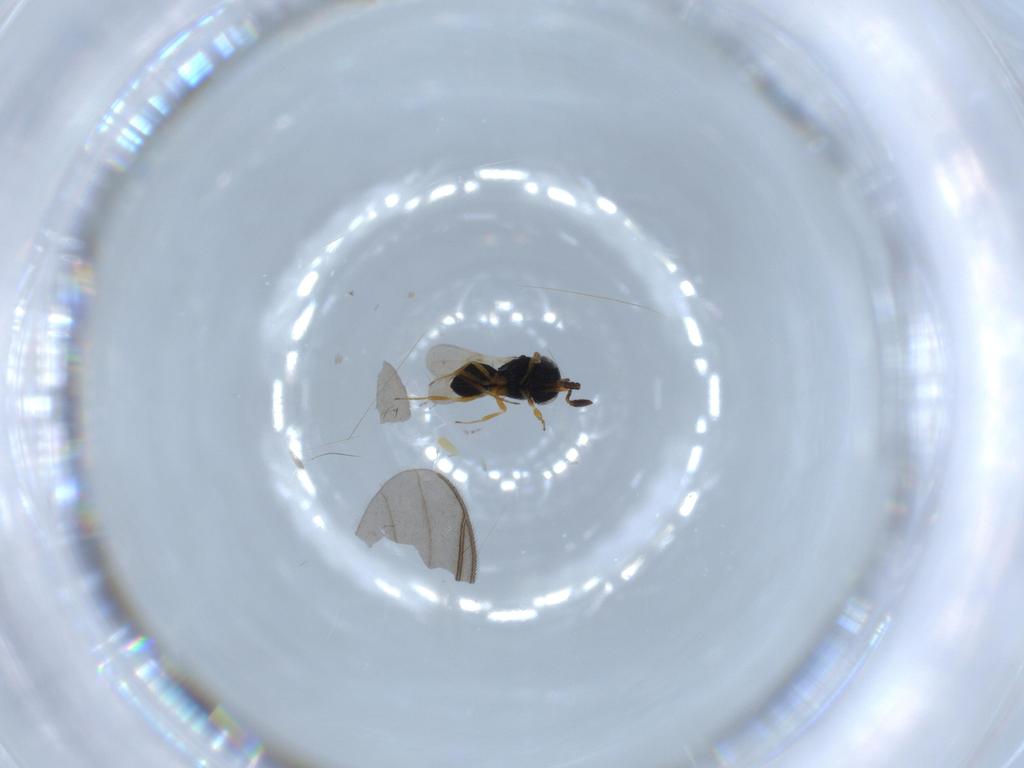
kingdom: Animalia
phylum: Arthropoda
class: Insecta
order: Hymenoptera
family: Scelionidae
